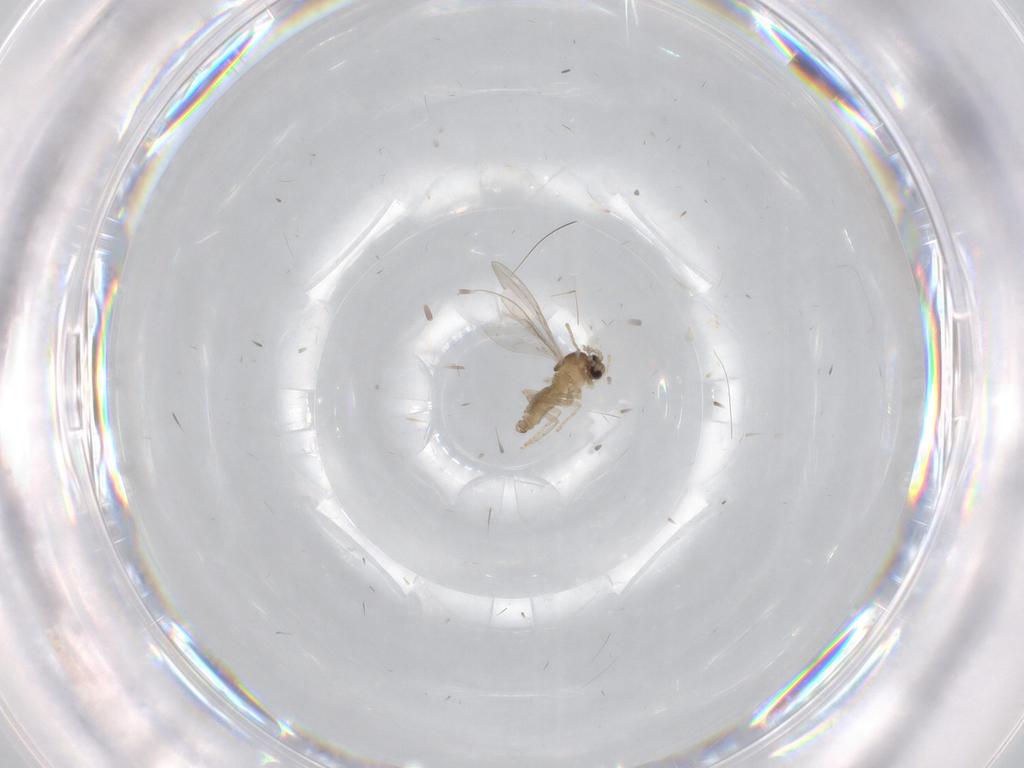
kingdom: Animalia
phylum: Arthropoda
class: Insecta
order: Diptera
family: Cecidomyiidae
